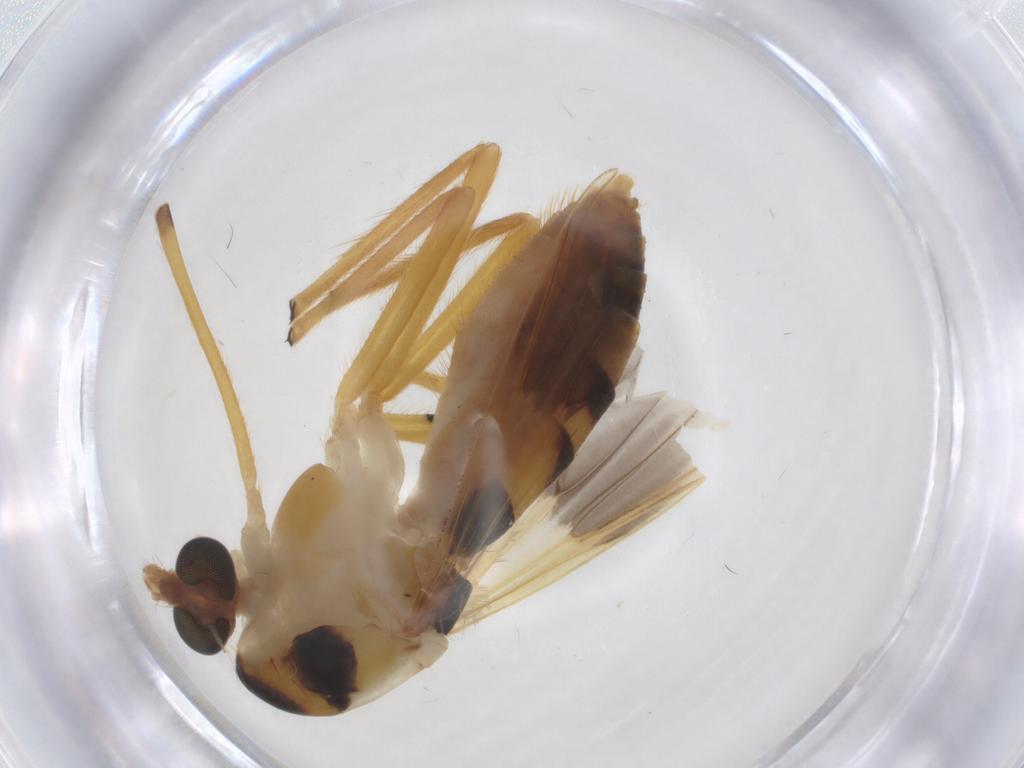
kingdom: Animalia
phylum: Arthropoda
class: Insecta
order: Diptera
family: Chironomidae
